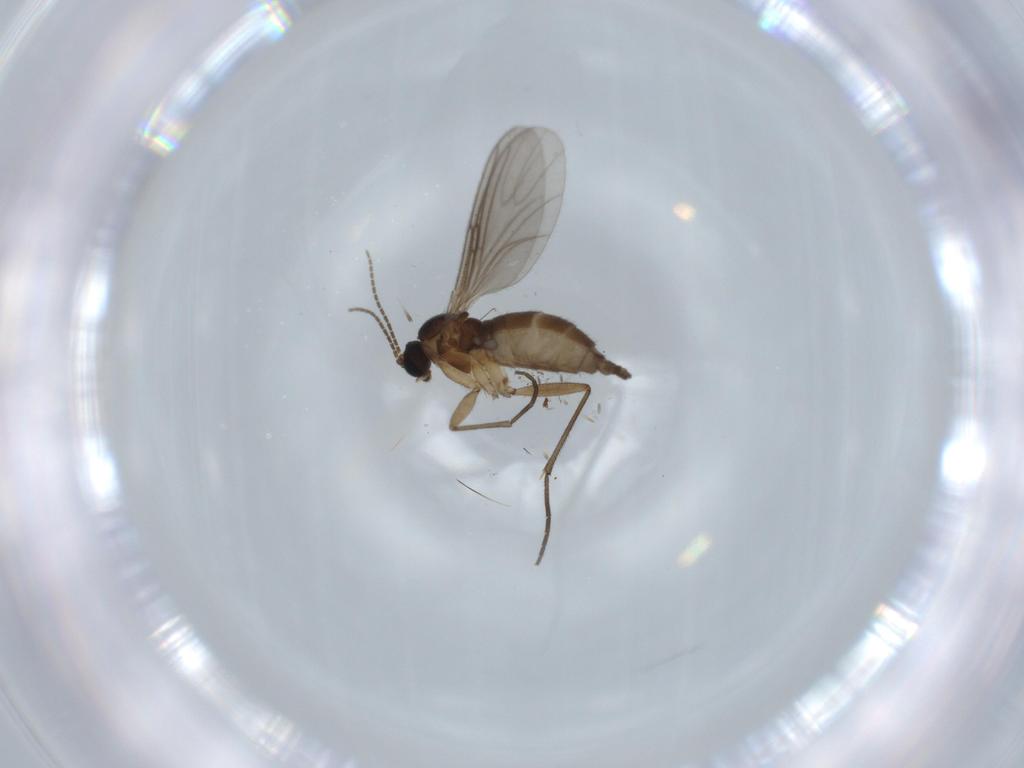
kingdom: Animalia
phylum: Arthropoda
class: Insecta
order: Diptera
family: Sciaridae
